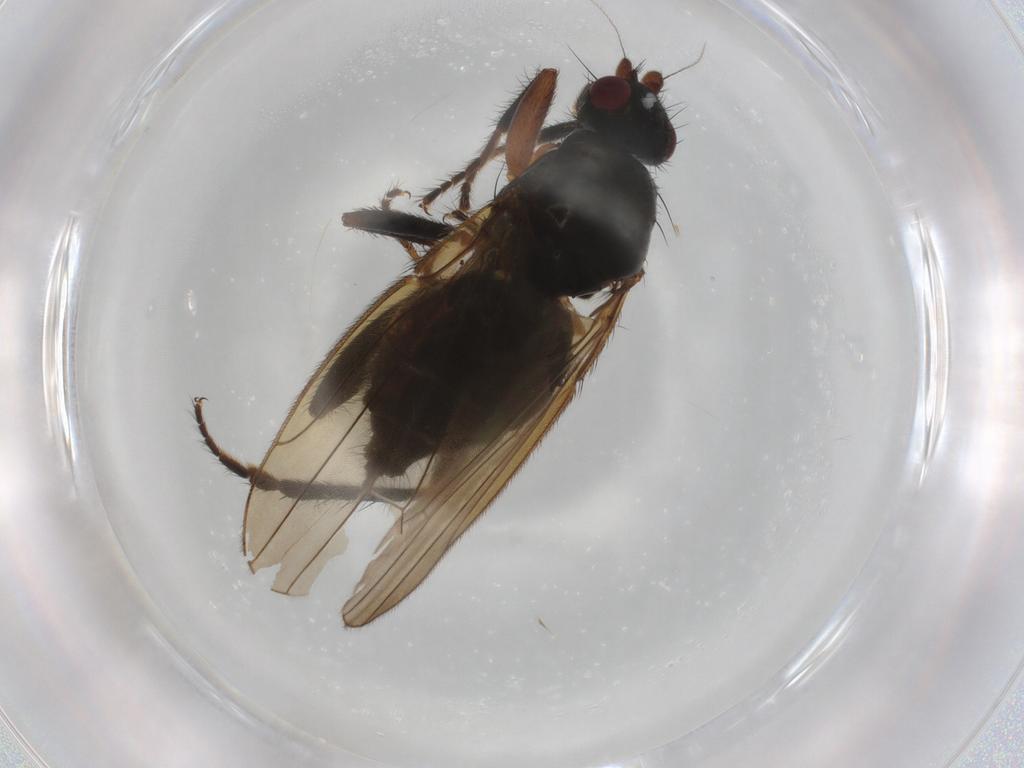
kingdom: Animalia
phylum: Arthropoda
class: Insecta
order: Diptera
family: Sphaeroceridae
